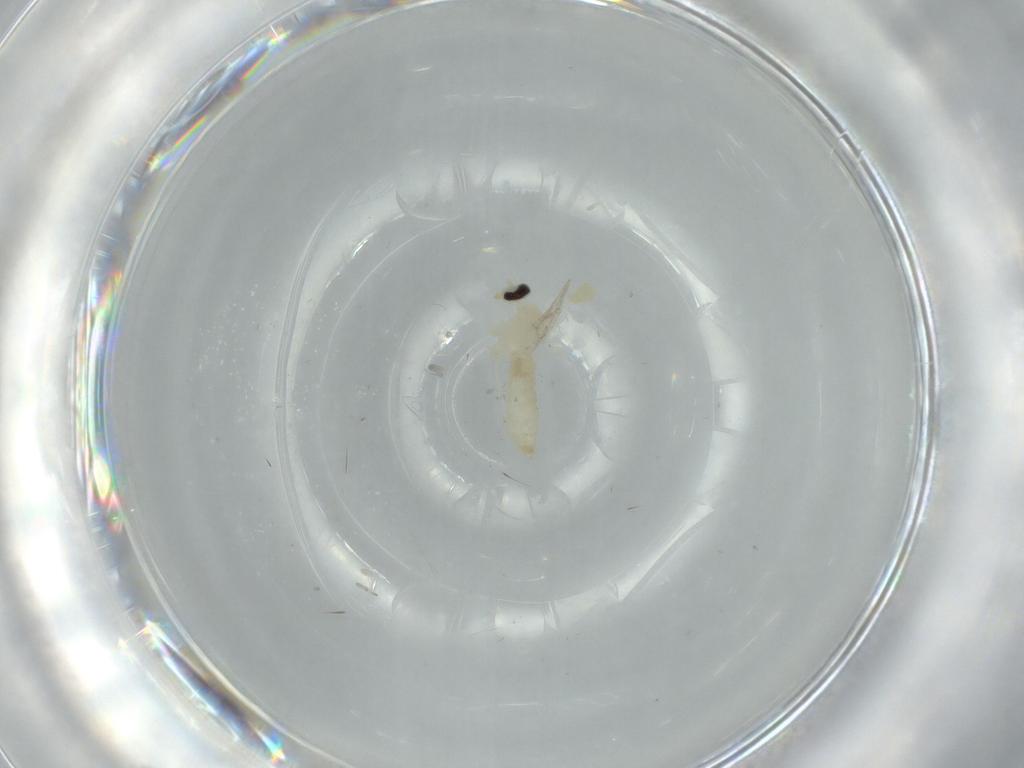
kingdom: Animalia
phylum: Arthropoda
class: Insecta
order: Diptera
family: Cecidomyiidae
